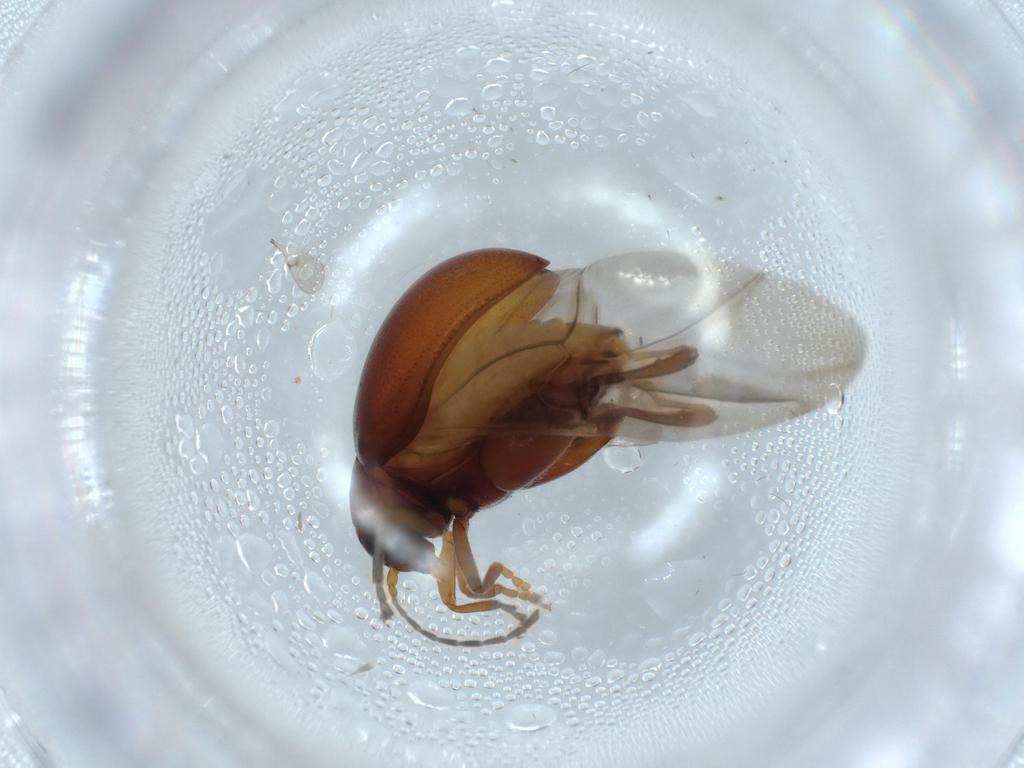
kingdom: Animalia
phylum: Arthropoda
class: Insecta
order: Coleoptera
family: Chrysomelidae
